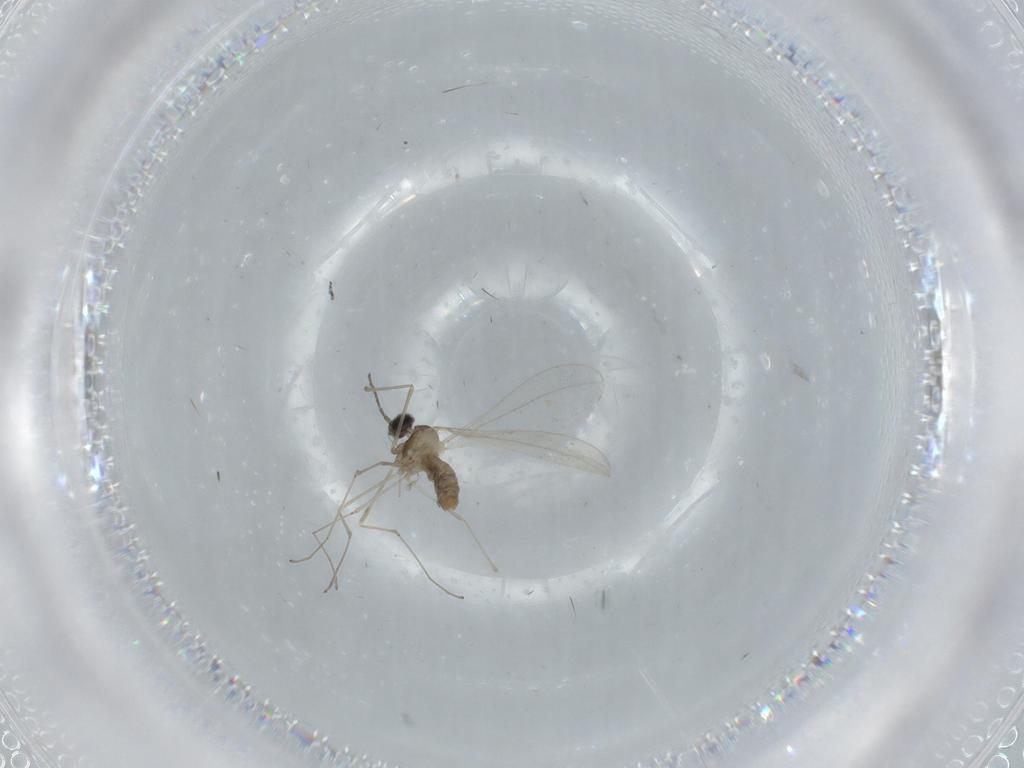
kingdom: Animalia
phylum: Arthropoda
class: Insecta
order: Diptera
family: Cecidomyiidae
